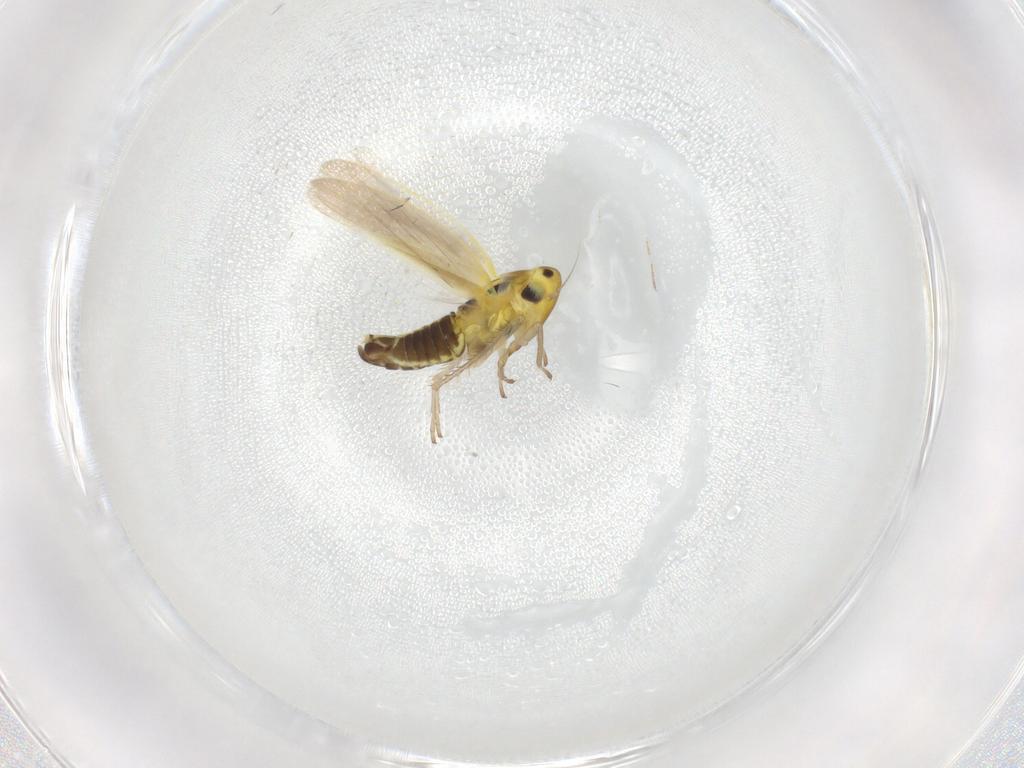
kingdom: Animalia
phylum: Arthropoda
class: Insecta
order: Hemiptera
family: Cicadellidae
